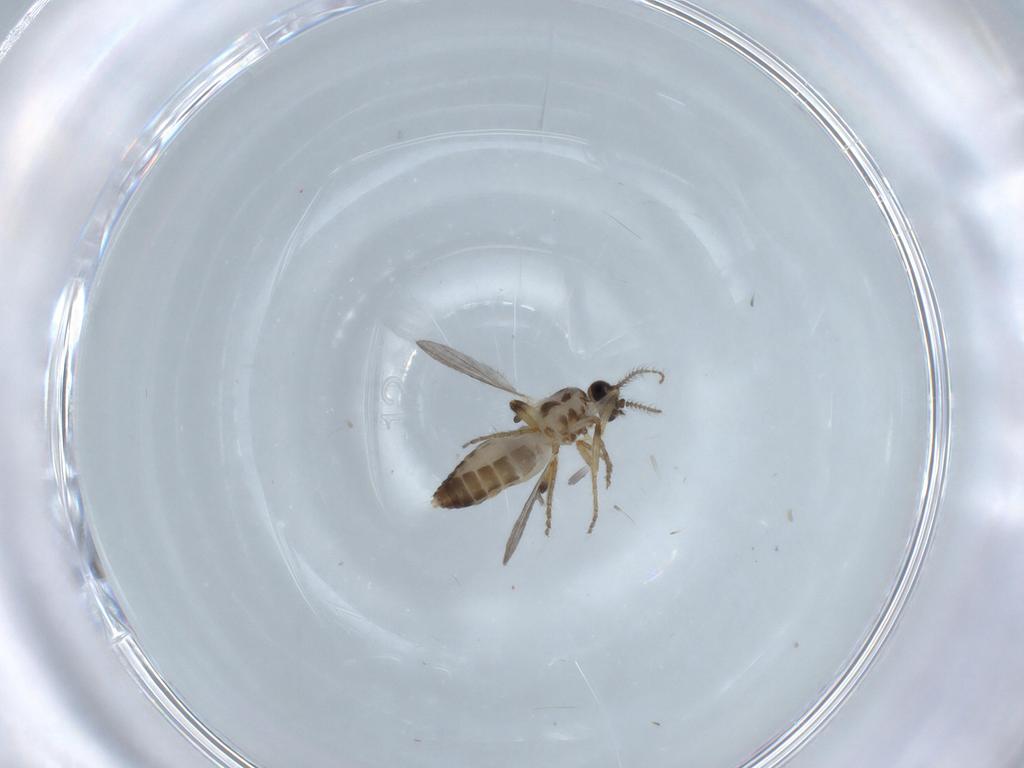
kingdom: Animalia
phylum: Arthropoda
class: Insecta
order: Diptera
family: Ceratopogonidae
